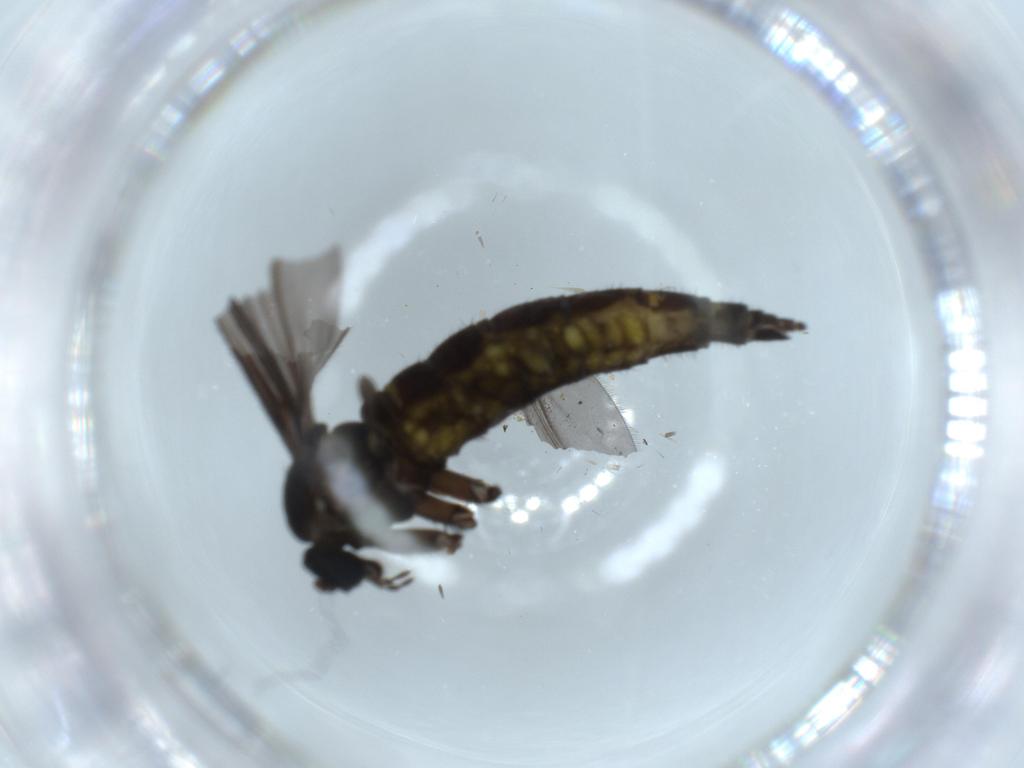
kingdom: Animalia
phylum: Arthropoda
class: Insecta
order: Diptera
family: Sciaridae
